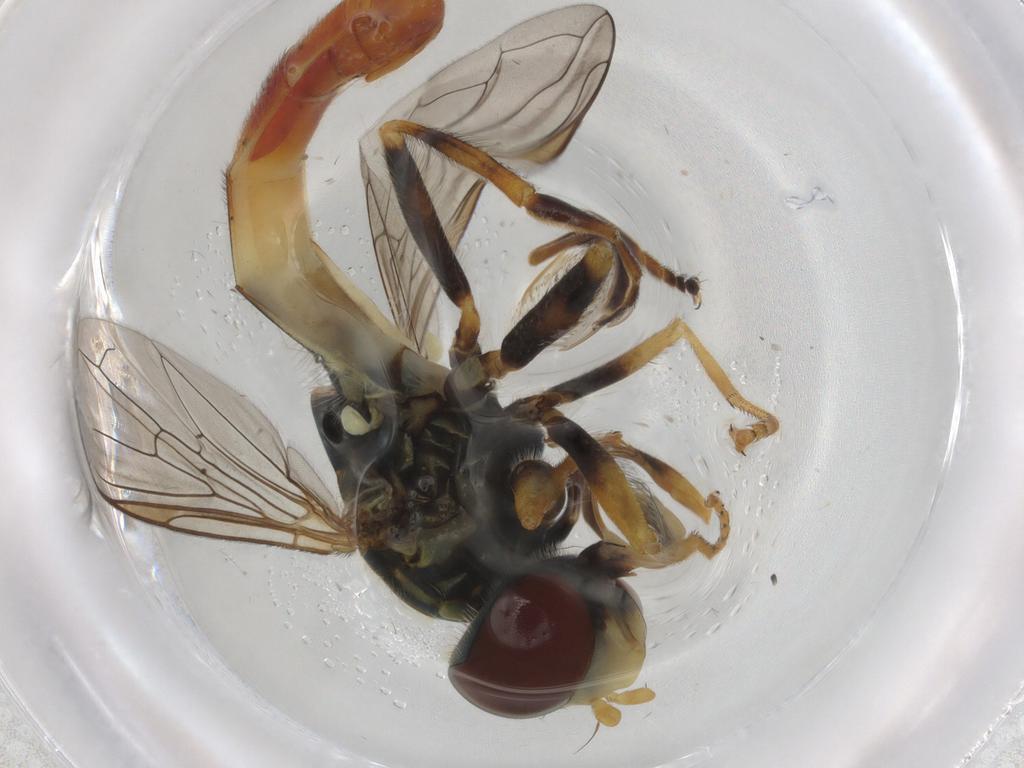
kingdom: Animalia
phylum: Arthropoda
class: Insecta
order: Diptera
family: Syrphidae
